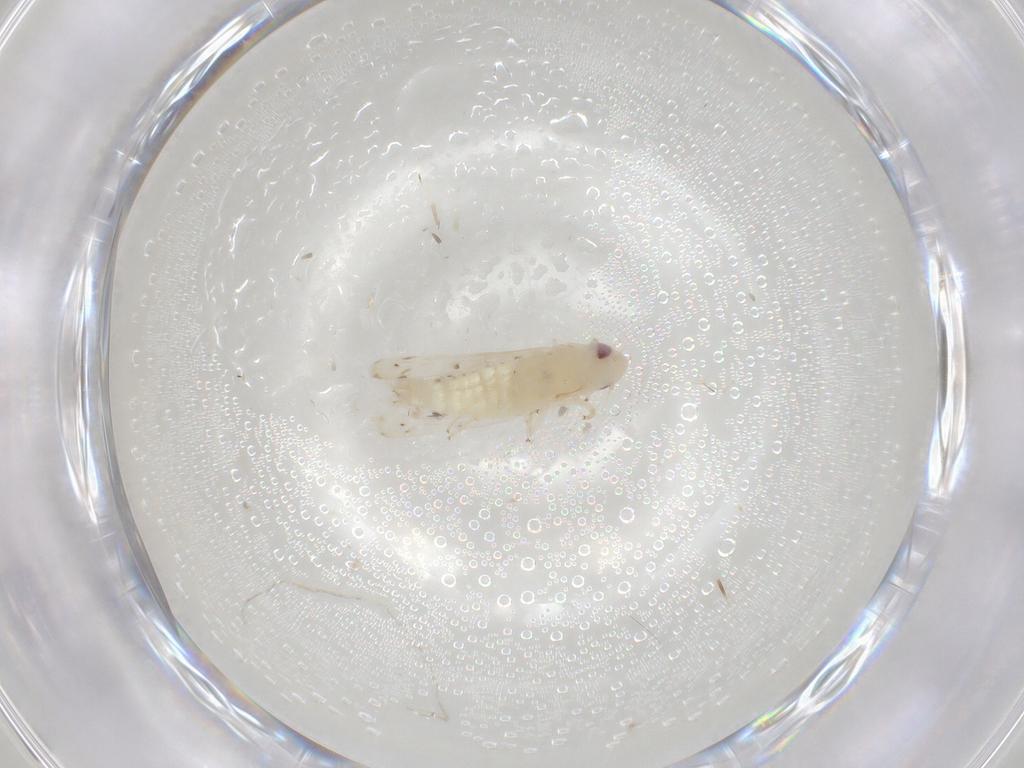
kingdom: Animalia
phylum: Arthropoda
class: Insecta
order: Hemiptera
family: Cicadellidae
